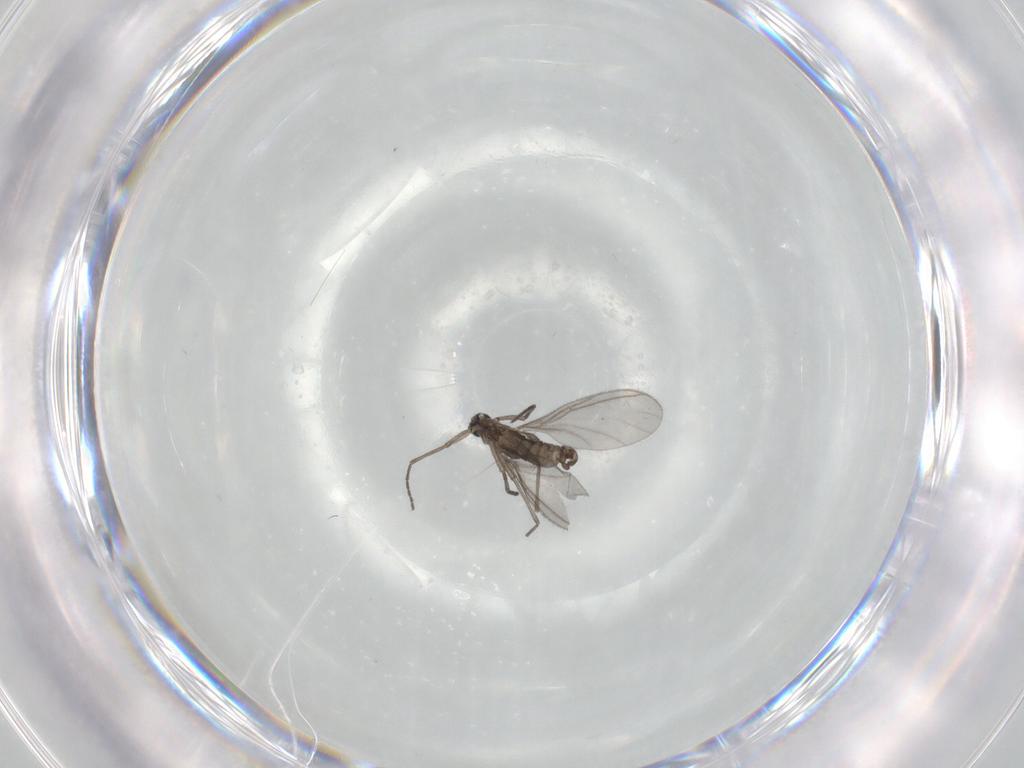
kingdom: Animalia
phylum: Arthropoda
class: Insecta
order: Diptera
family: Sciaridae
